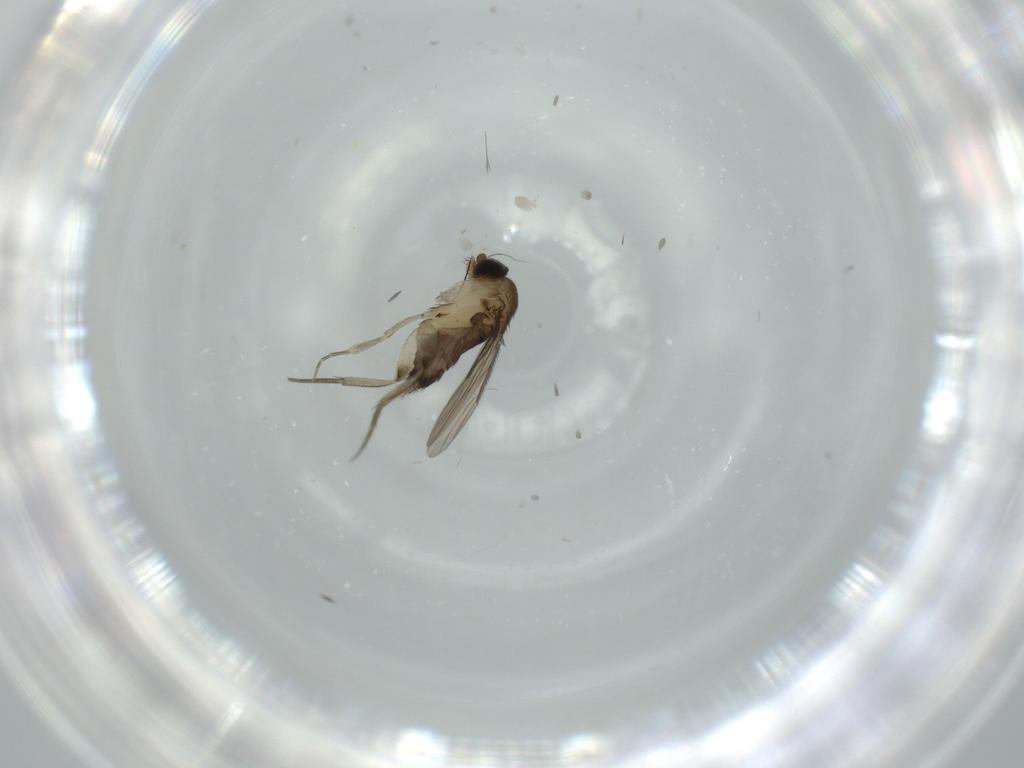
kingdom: Animalia
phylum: Arthropoda
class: Insecta
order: Diptera
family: Phoridae
